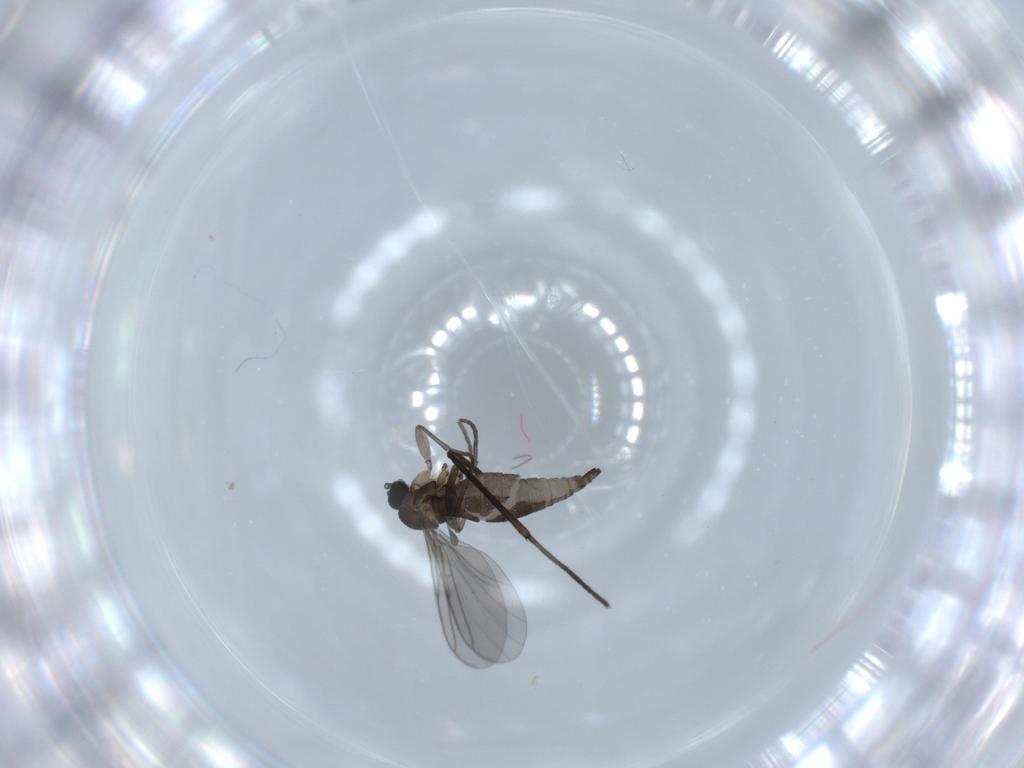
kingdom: Animalia
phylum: Arthropoda
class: Insecta
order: Diptera
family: Sciaridae
